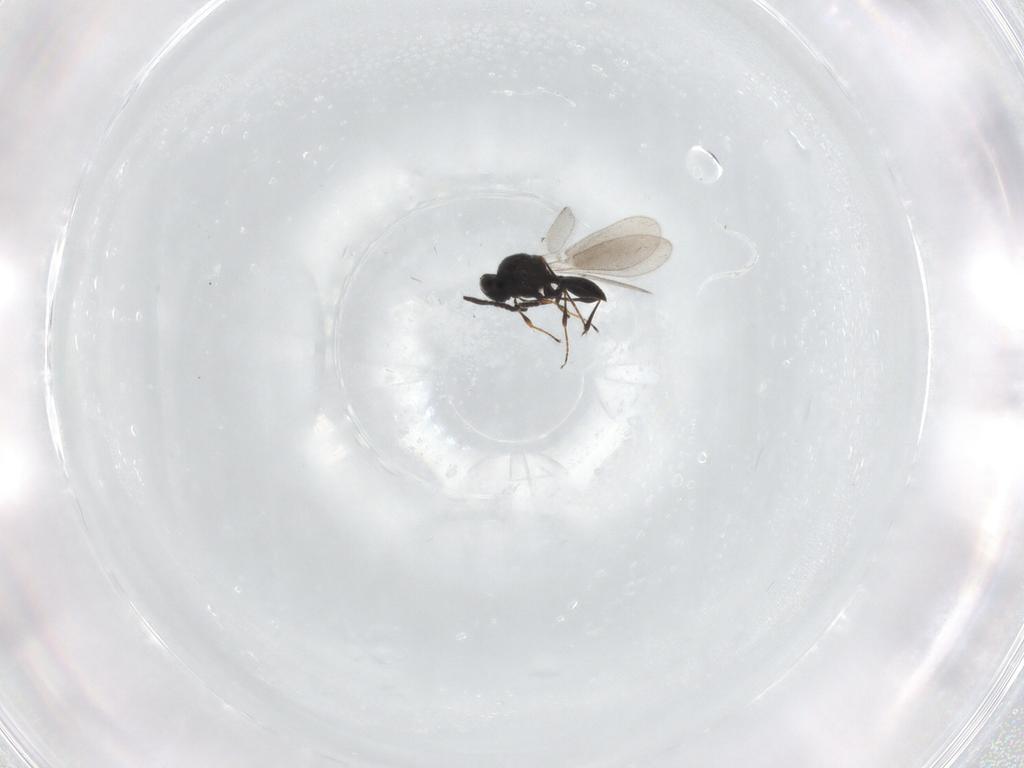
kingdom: Animalia
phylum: Arthropoda
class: Insecta
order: Hymenoptera
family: Platygastridae
